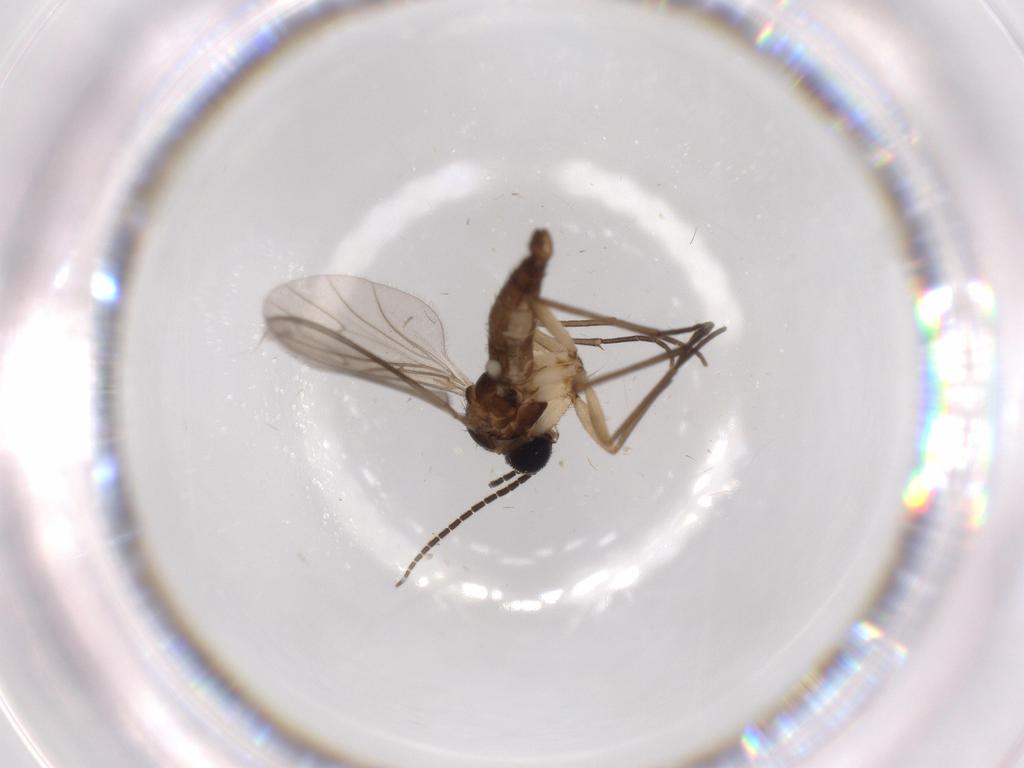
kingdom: Animalia
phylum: Arthropoda
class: Insecta
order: Diptera
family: Sciaridae
